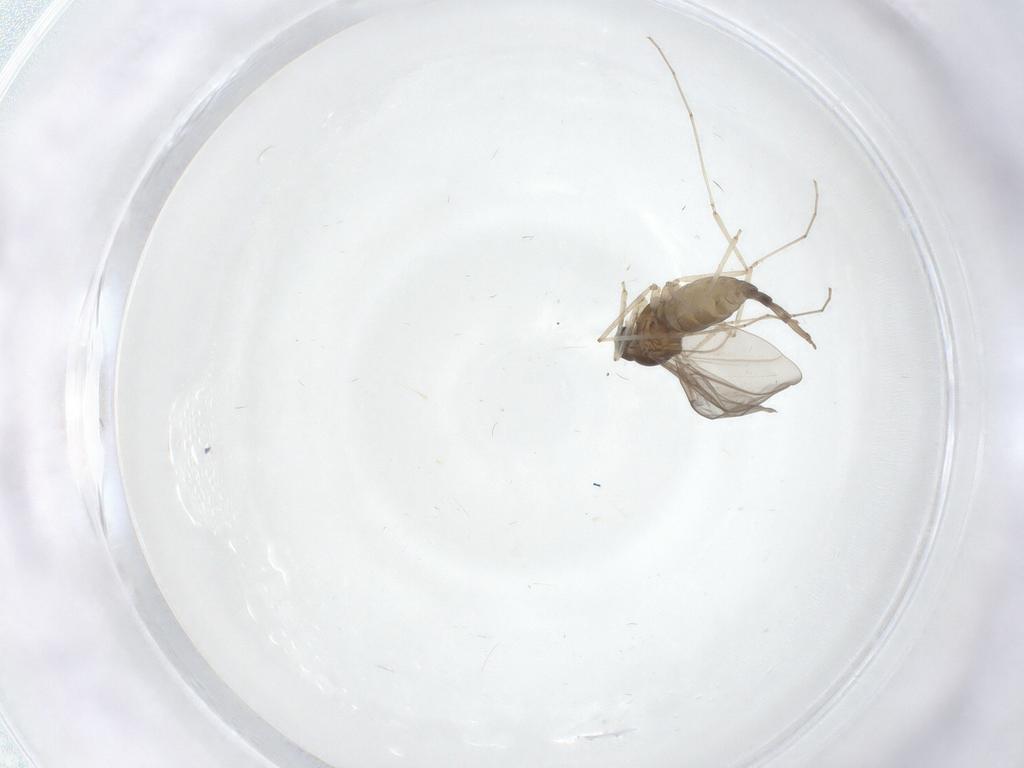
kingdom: Animalia
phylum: Arthropoda
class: Insecta
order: Diptera
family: Cecidomyiidae
